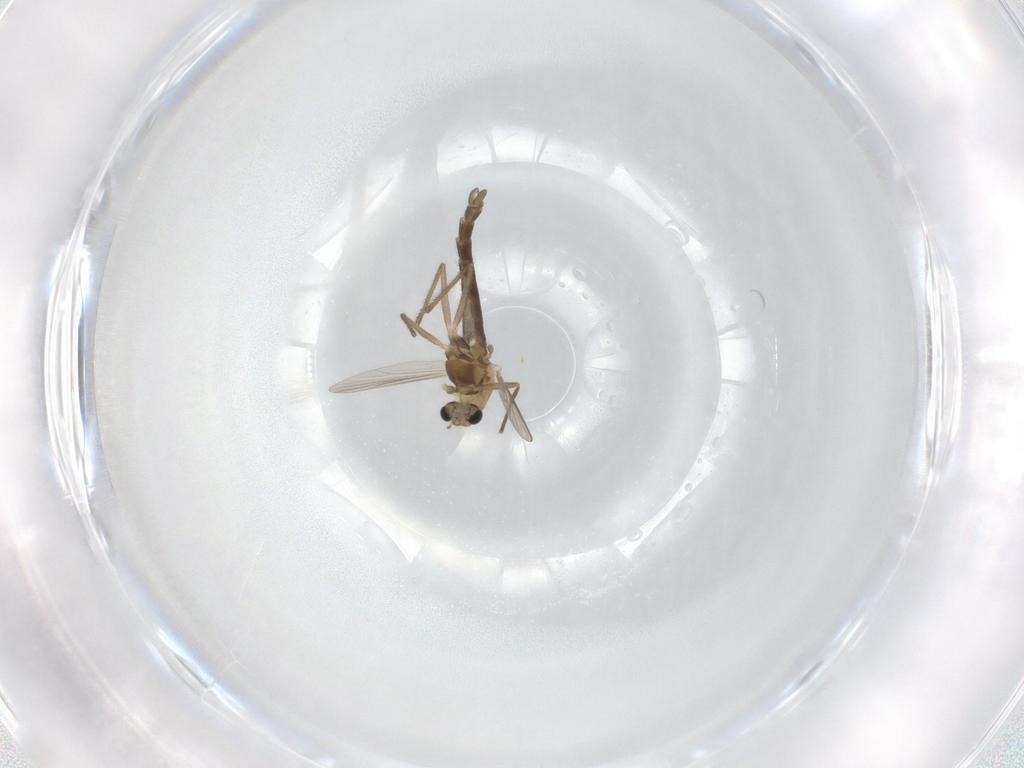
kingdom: Animalia
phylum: Arthropoda
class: Insecta
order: Diptera
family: Chironomidae
